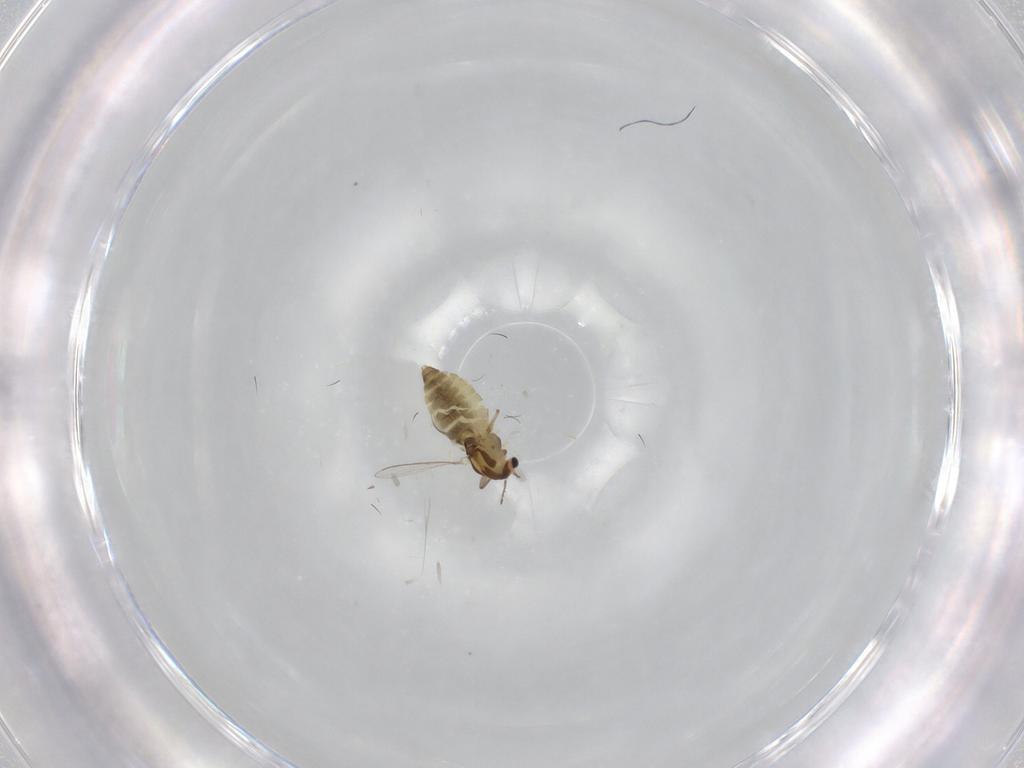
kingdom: Animalia
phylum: Arthropoda
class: Insecta
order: Diptera
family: Chironomidae
